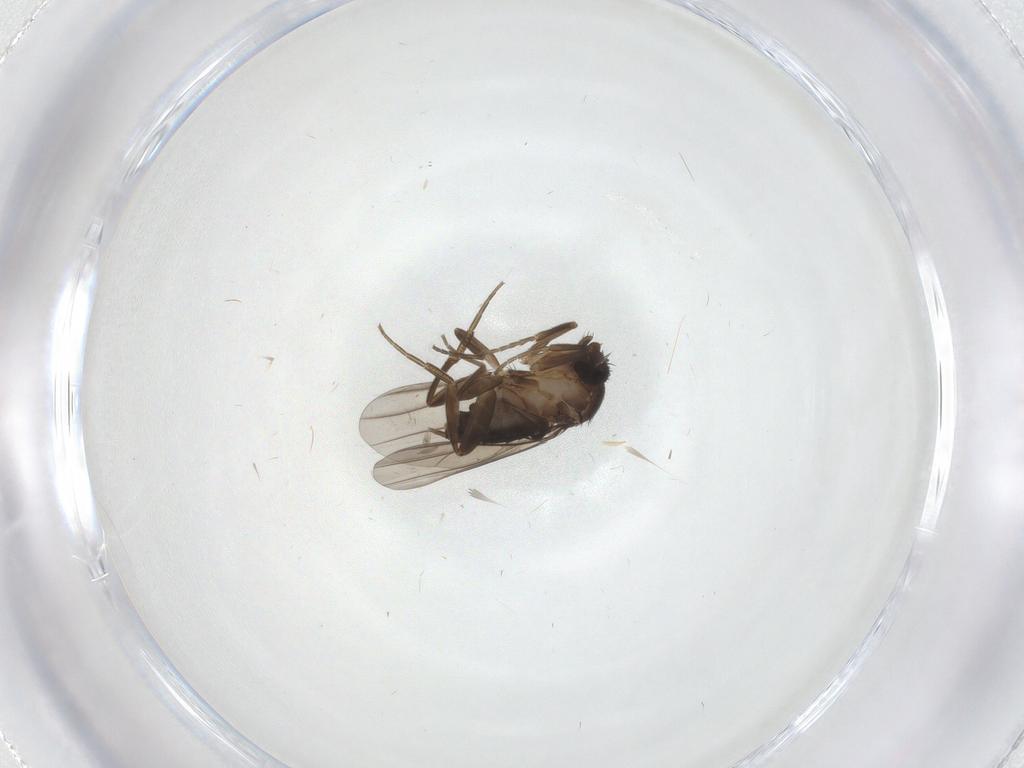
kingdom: Animalia
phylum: Arthropoda
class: Insecta
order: Diptera
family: Phoridae
